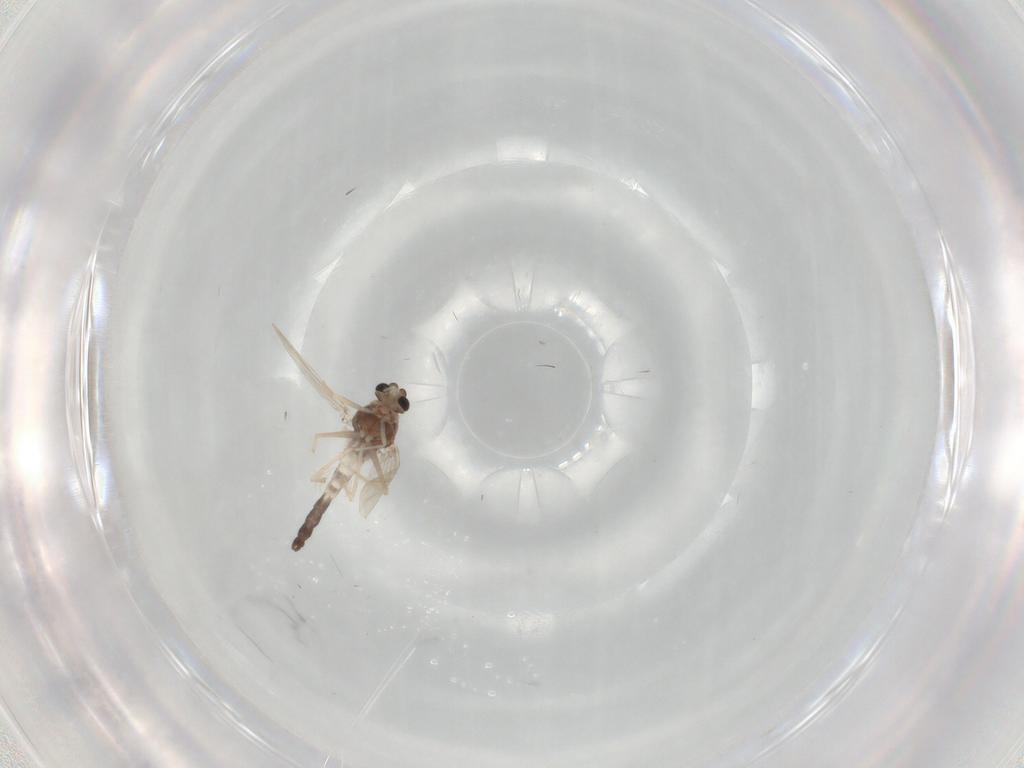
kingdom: Animalia
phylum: Arthropoda
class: Insecta
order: Diptera
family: Chironomidae
